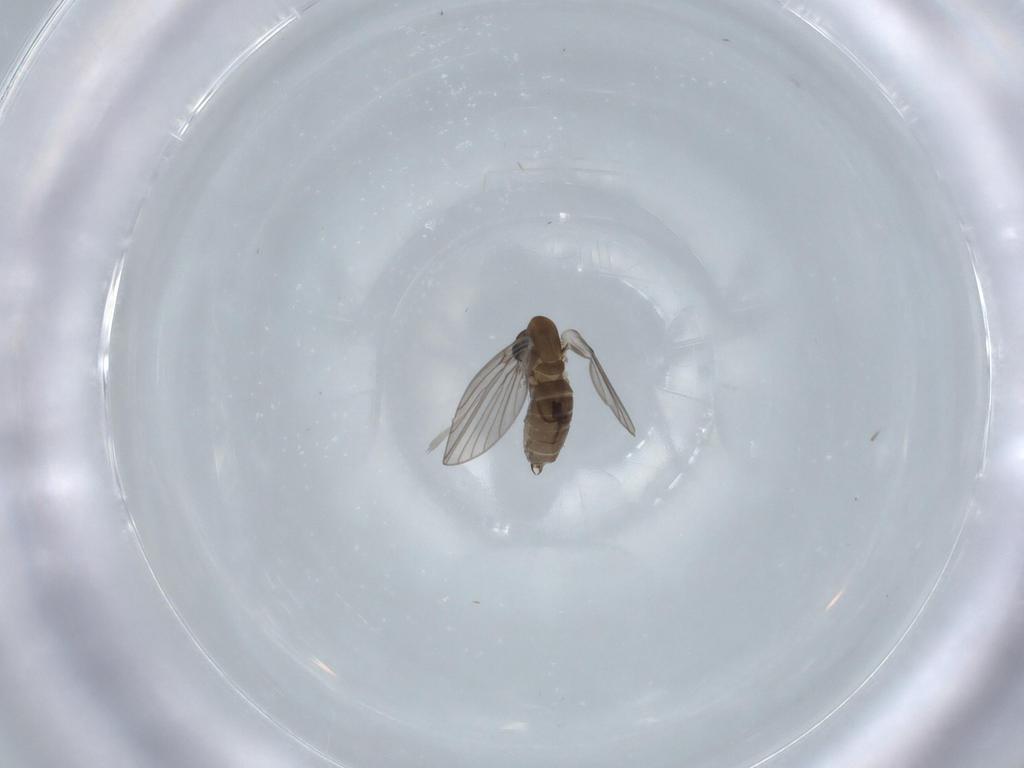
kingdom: Animalia
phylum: Arthropoda
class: Insecta
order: Diptera
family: Psychodidae
